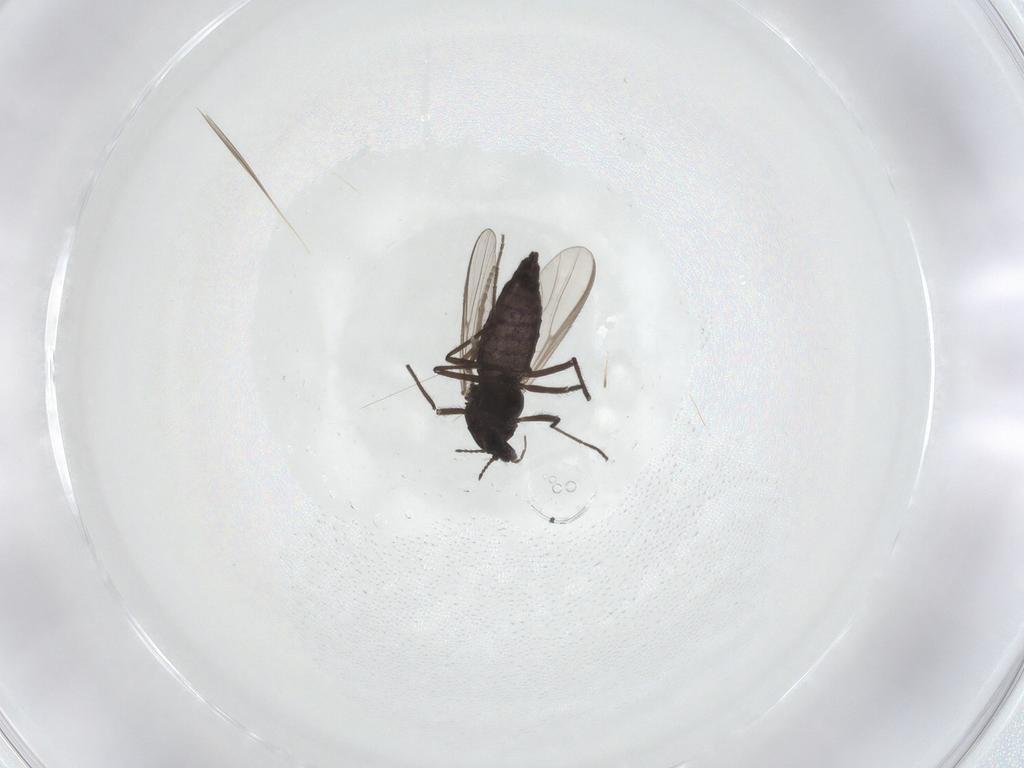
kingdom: Animalia
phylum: Arthropoda
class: Insecta
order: Diptera
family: Chironomidae
